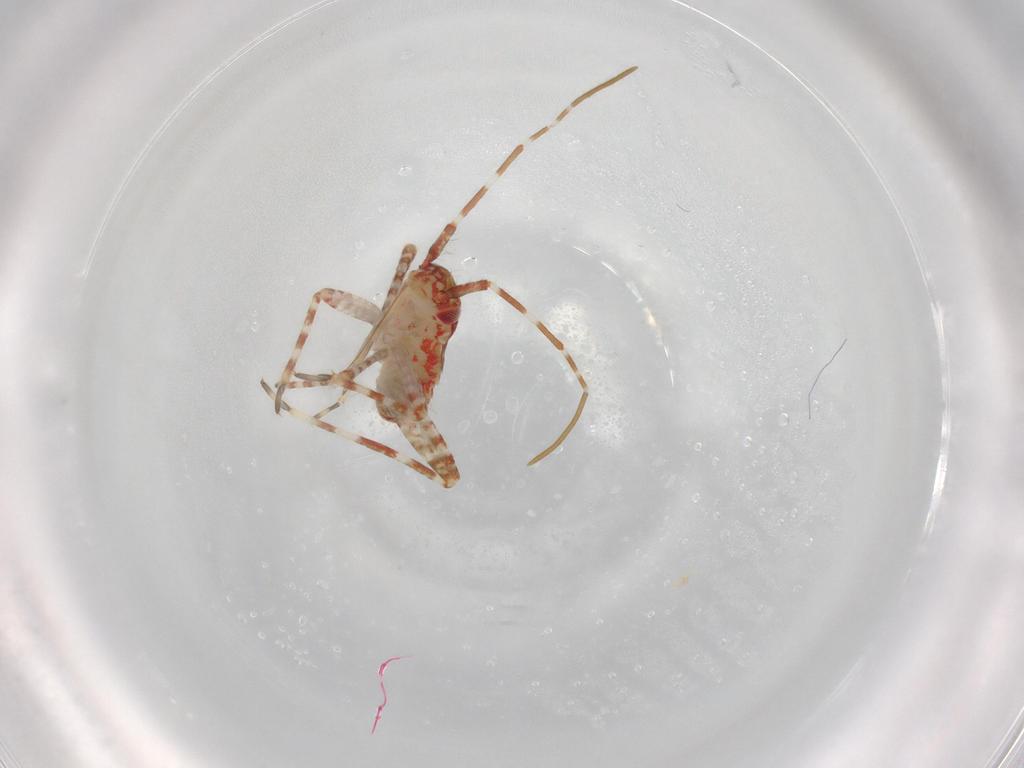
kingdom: Animalia
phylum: Arthropoda
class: Insecta
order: Hemiptera
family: Miridae
